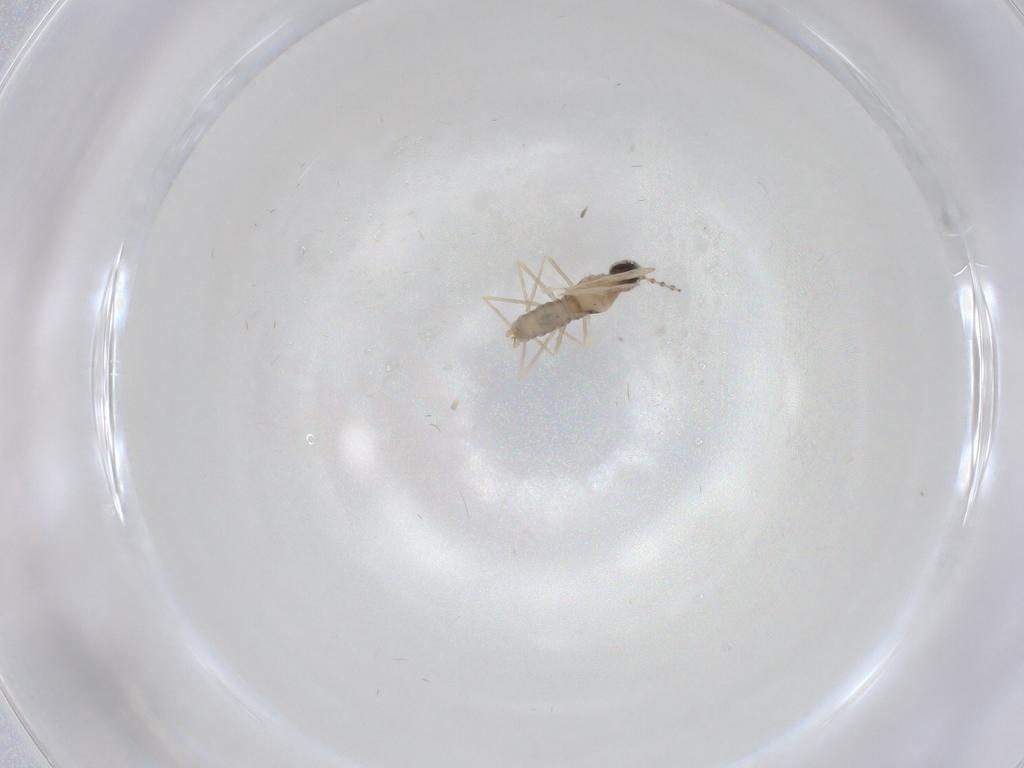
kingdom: Animalia
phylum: Arthropoda
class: Insecta
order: Diptera
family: Cecidomyiidae
